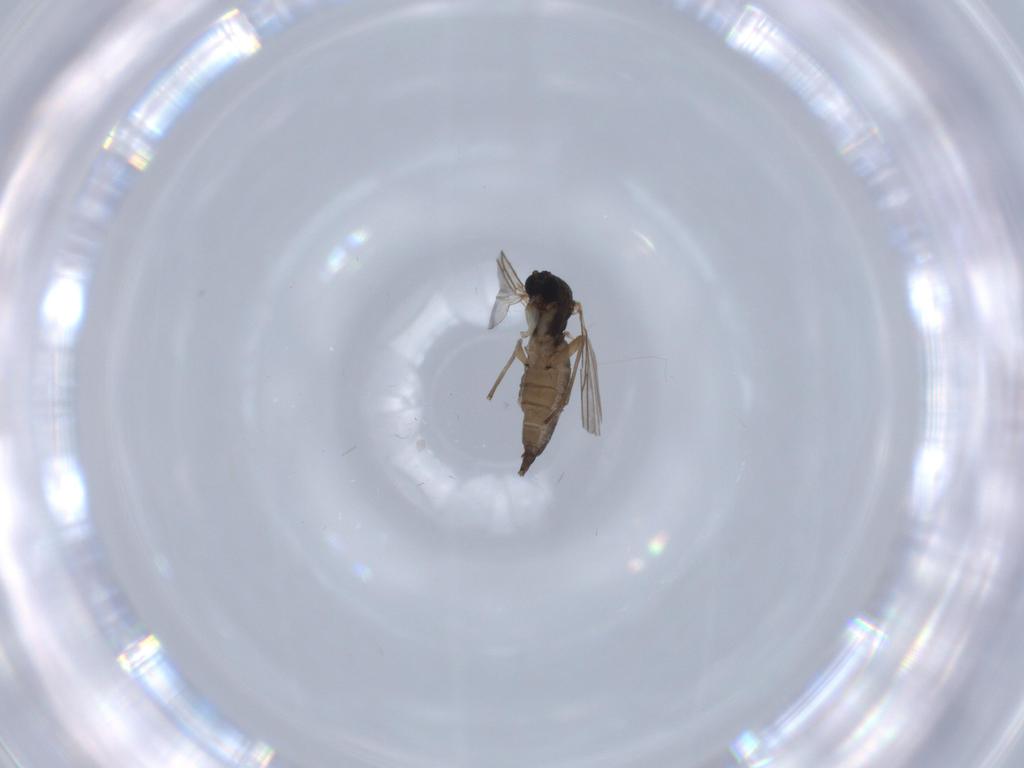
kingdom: Animalia
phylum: Arthropoda
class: Insecta
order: Diptera
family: Sciaridae
